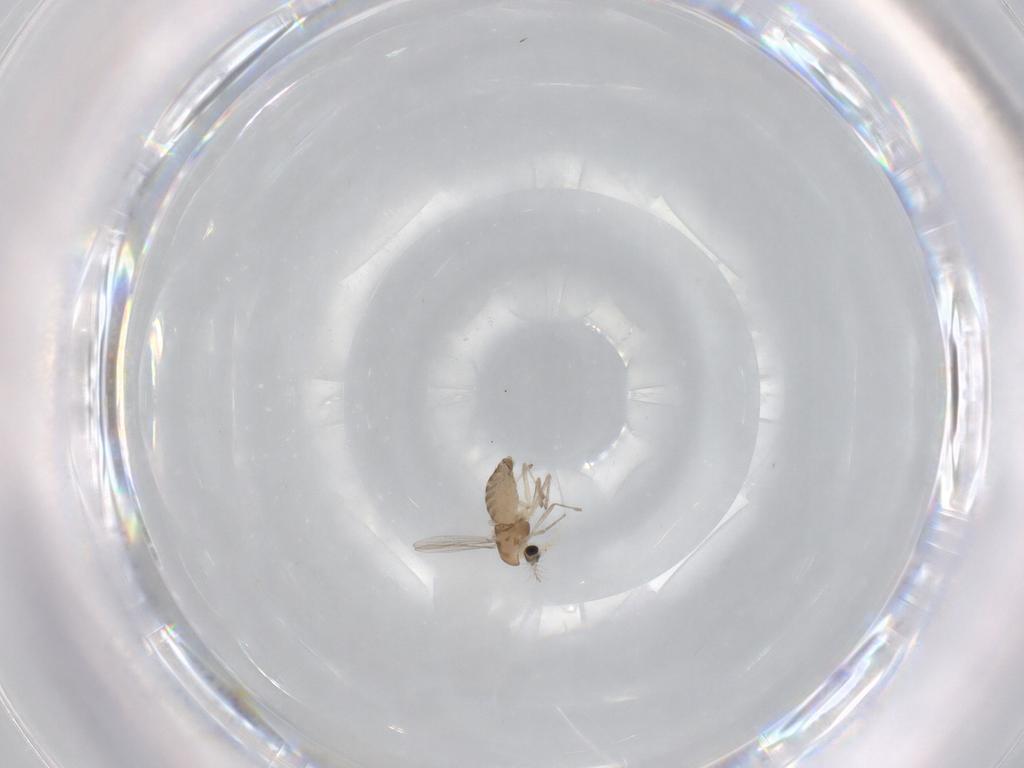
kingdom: Animalia
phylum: Arthropoda
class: Insecta
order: Diptera
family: Chironomidae
